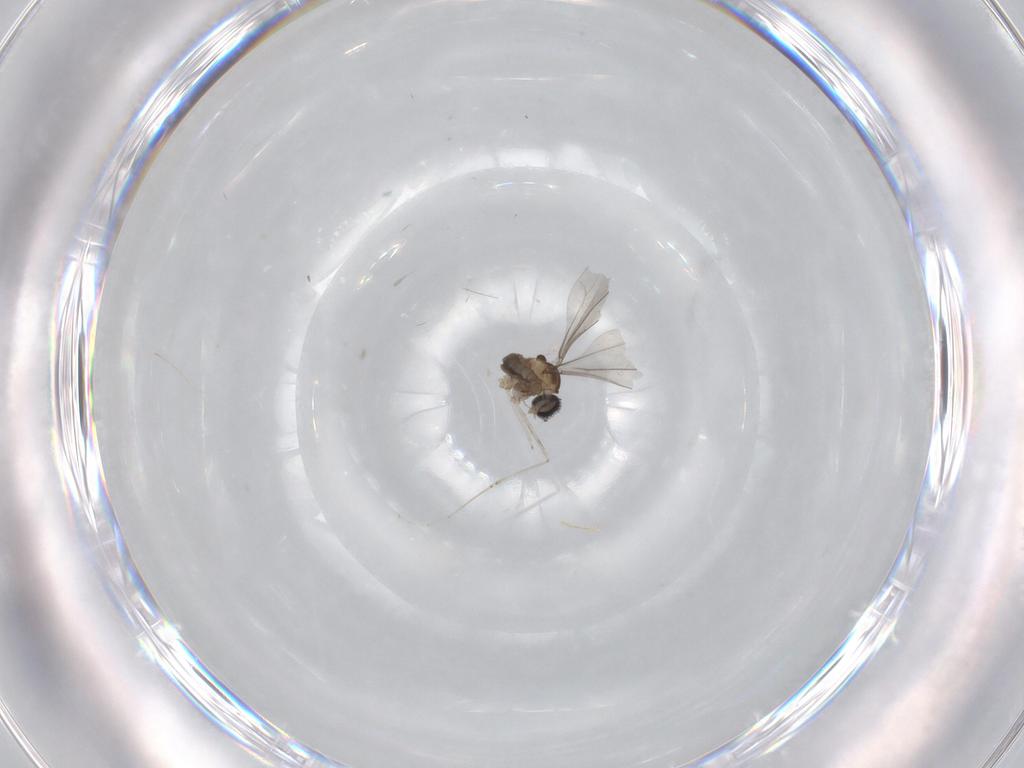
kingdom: Animalia
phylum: Arthropoda
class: Insecta
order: Diptera
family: Cecidomyiidae
